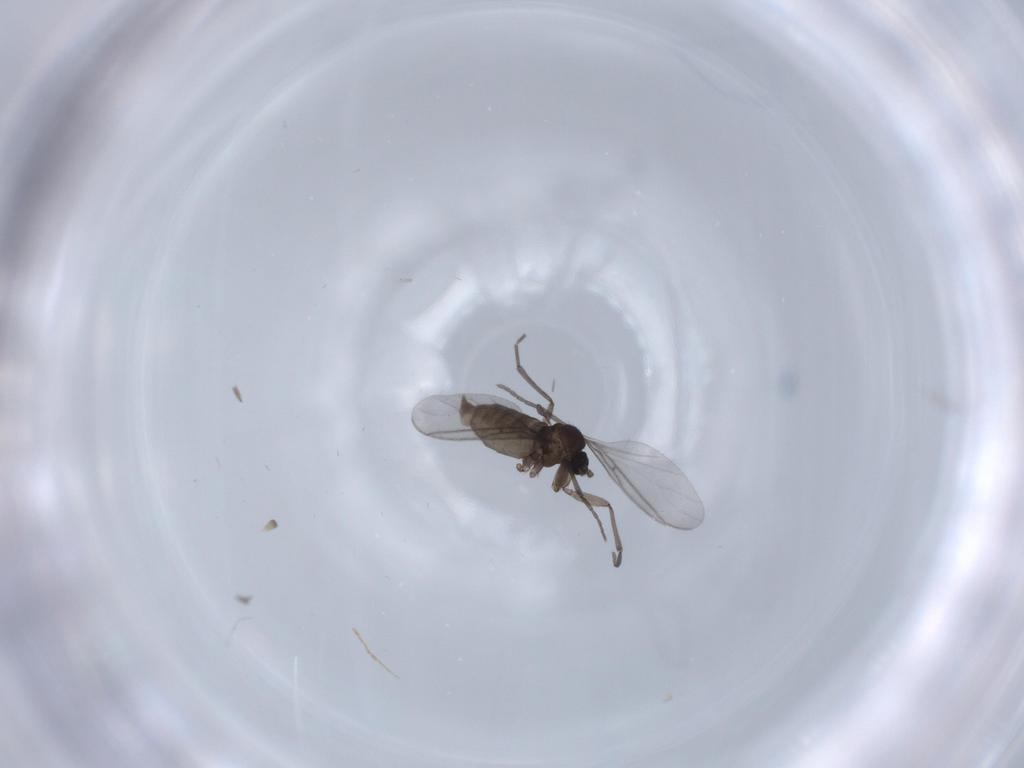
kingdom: Animalia
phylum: Arthropoda
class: Insecta
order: Diptera
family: Sciaridae
